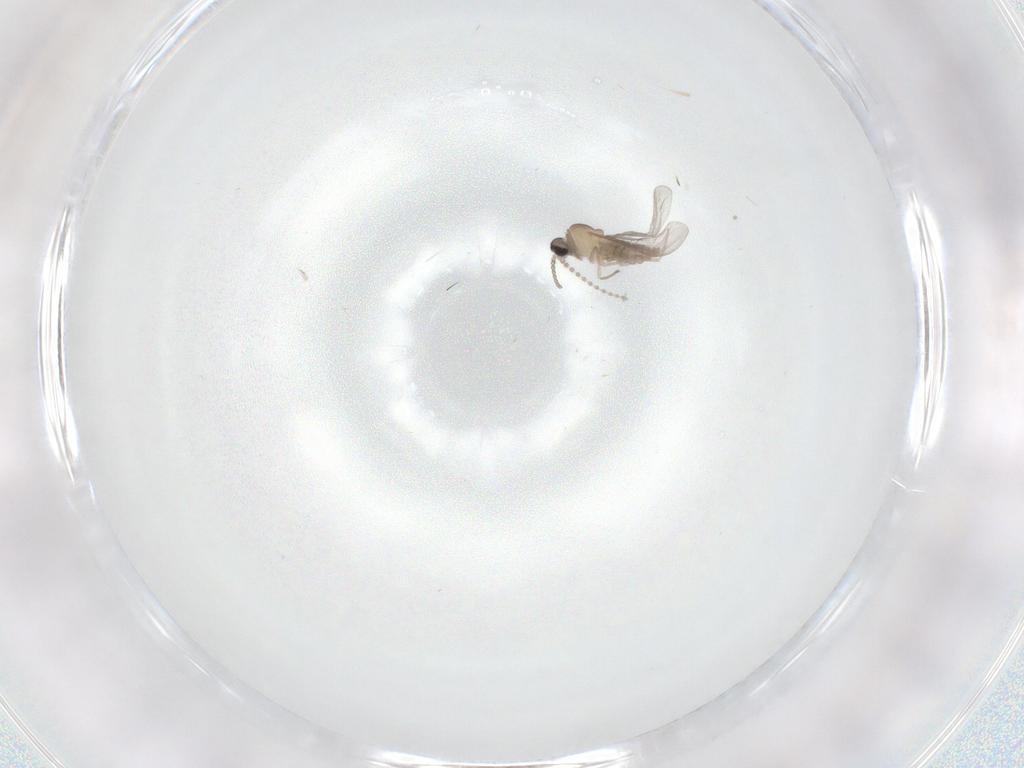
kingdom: Animalia
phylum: Arthropoda
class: Insecta
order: Diptera
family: Cecidomyiidae
